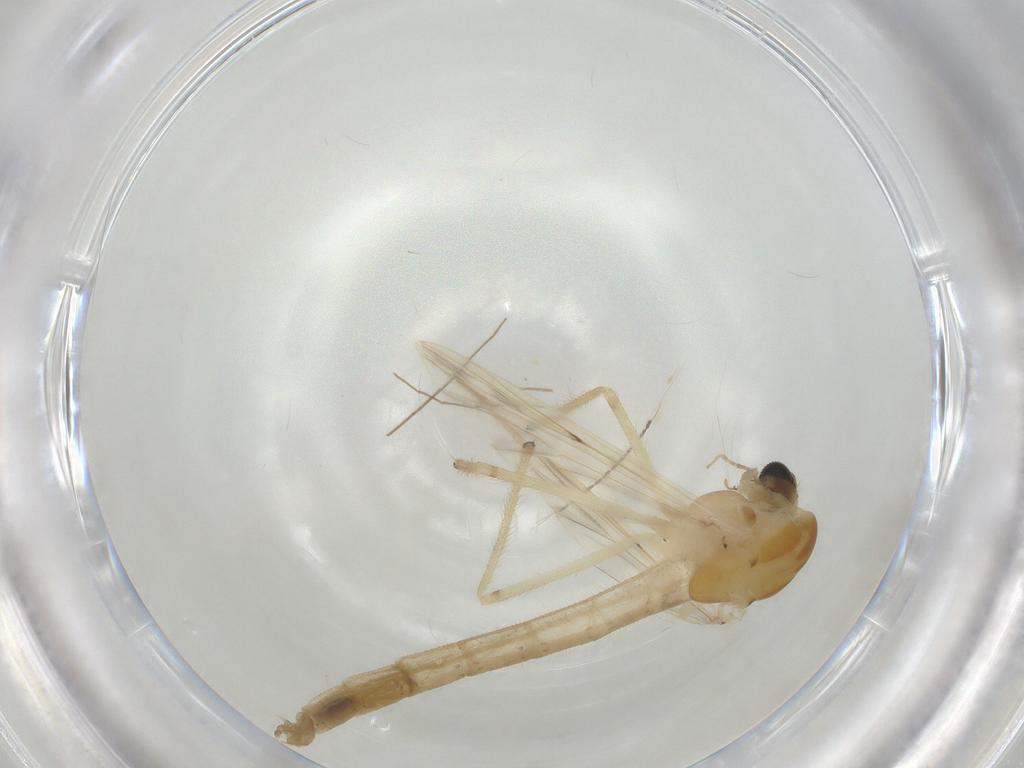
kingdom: Animalia
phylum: Arthropoda
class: Insecta
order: Diptera
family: Chironomidae
